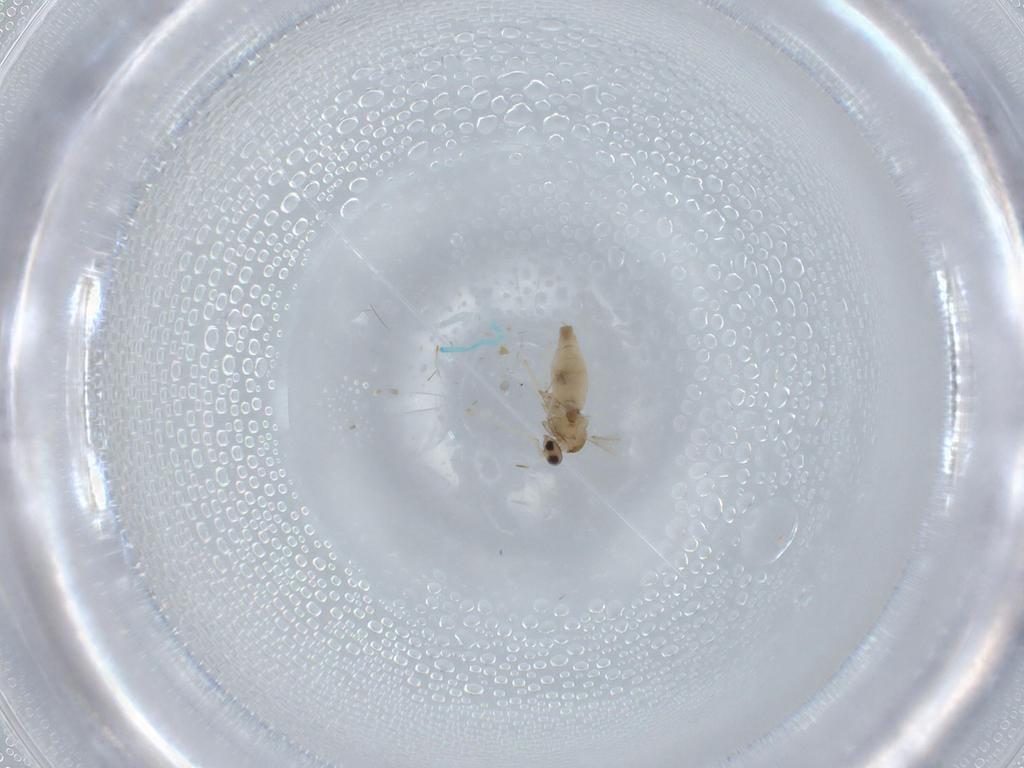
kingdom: Animalia
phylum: Arthropoda
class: Insecta
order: Diptera
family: Cecidomyiidae
